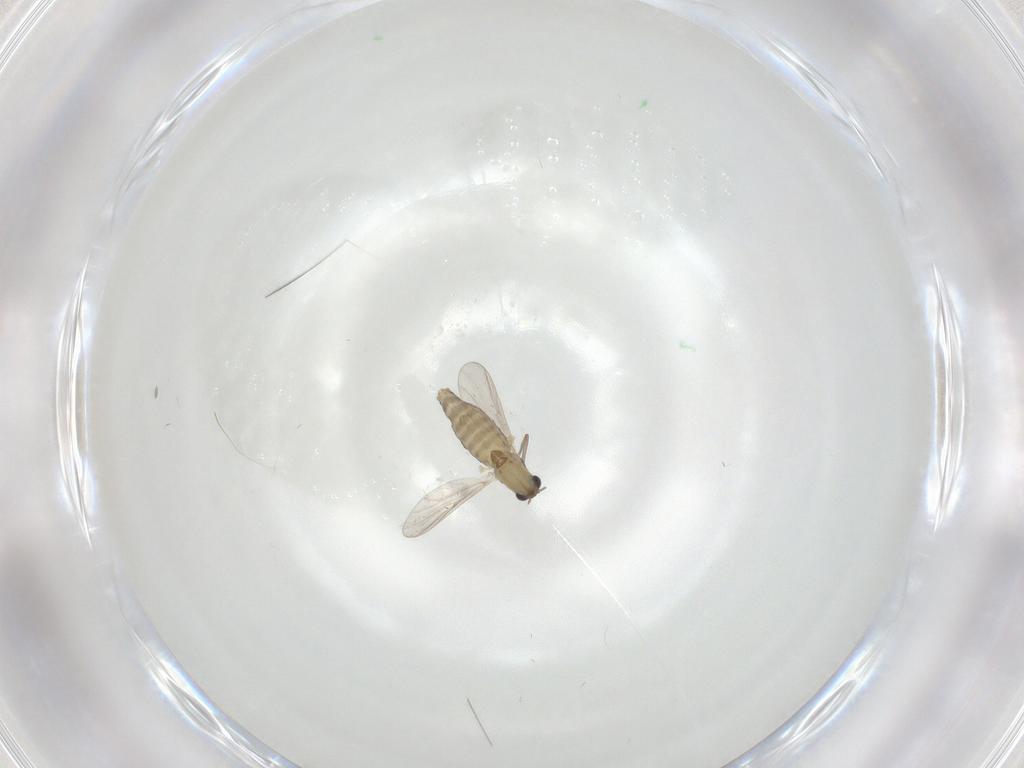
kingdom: Animalia
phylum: Arthropoda
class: Insecta
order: Diptera
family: Chironomidae
